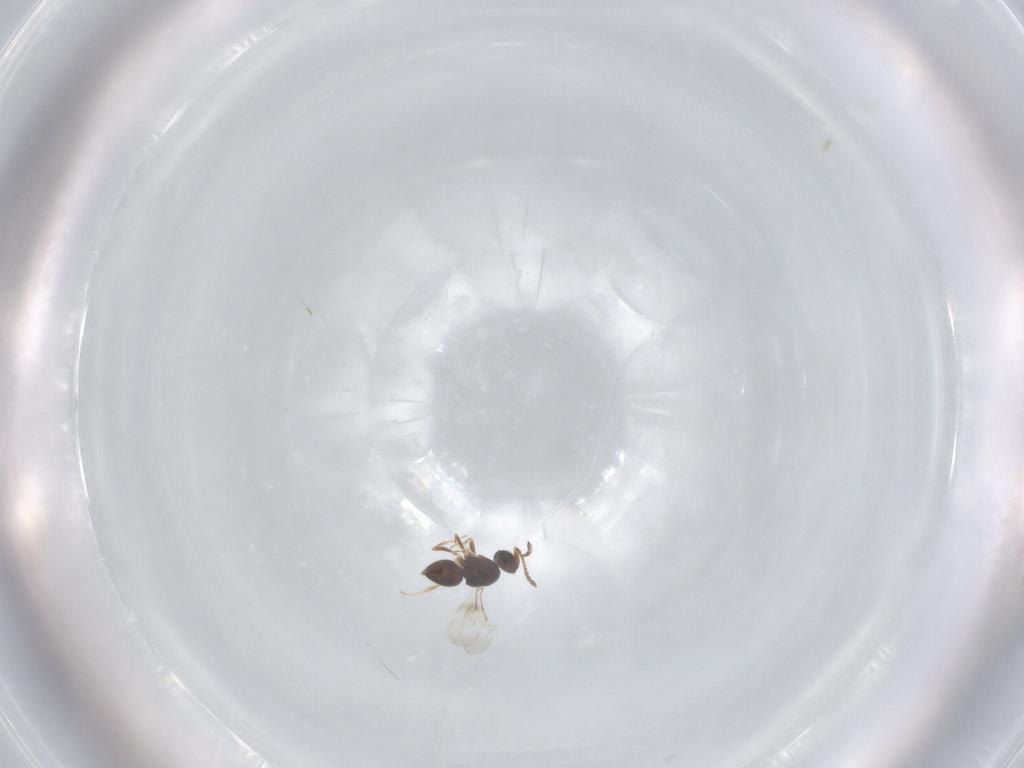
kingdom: Animalia
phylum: Arthropoda
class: Insecta
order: Hymenoptera
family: Ceraphronidae
